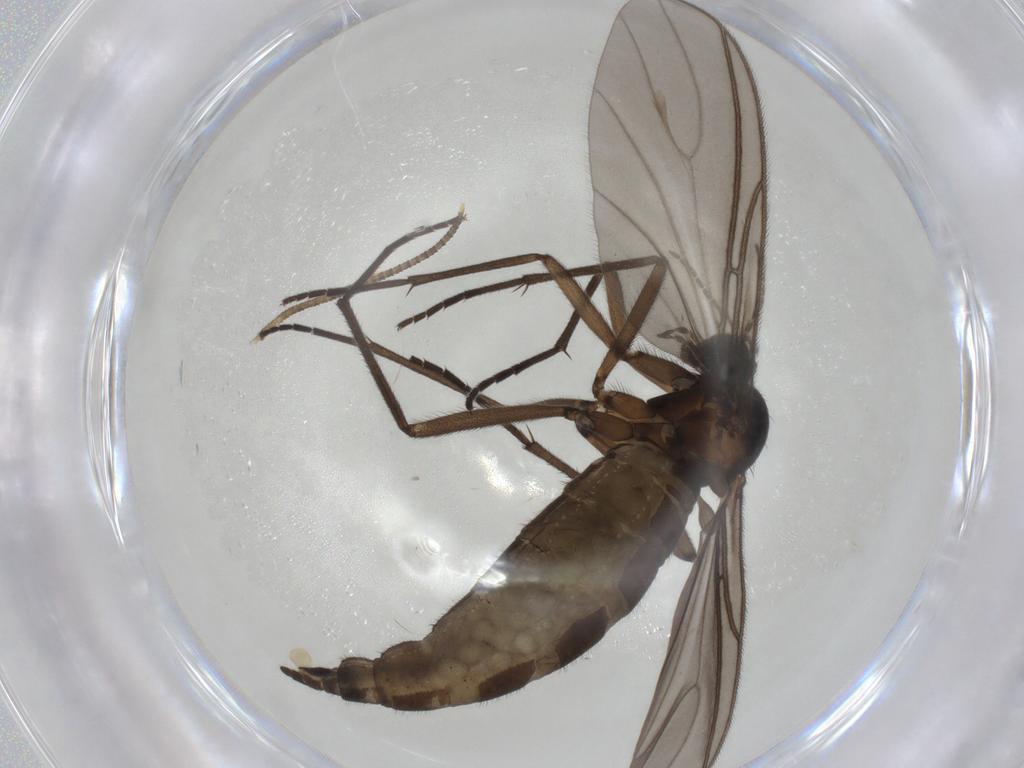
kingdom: Animalia
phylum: Arthropoda
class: Insecta
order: Diptera
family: Sciaridae
